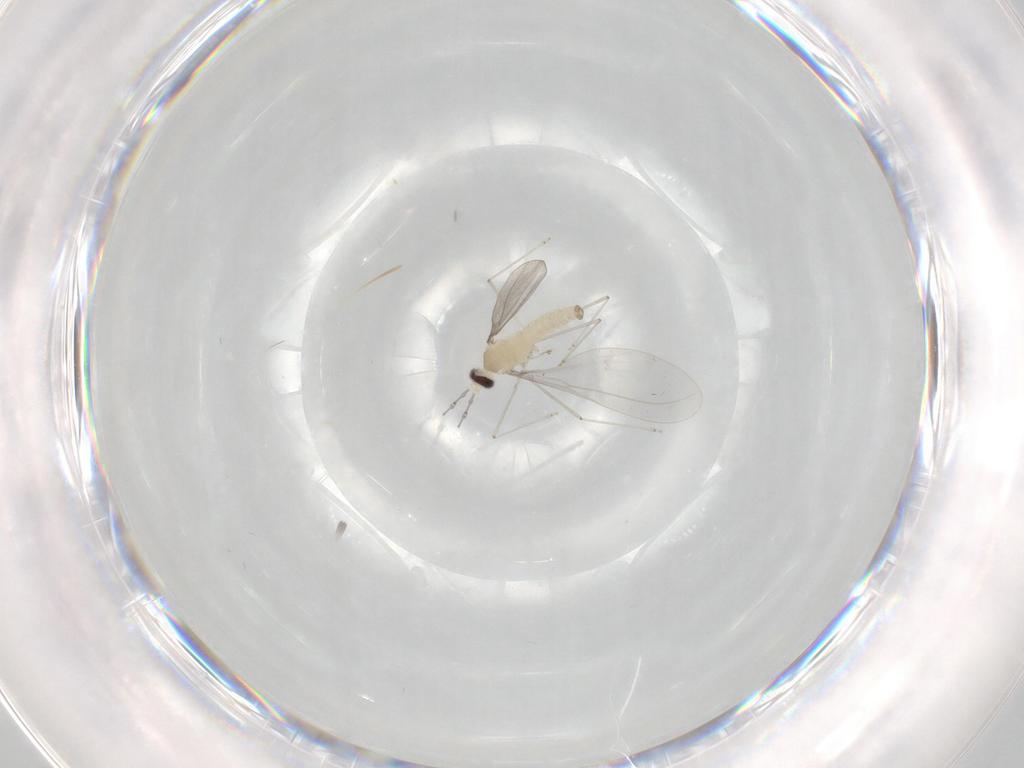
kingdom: Animalia
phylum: Arthropoda
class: Insecta
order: Diptera
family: Cecidomyiidae
